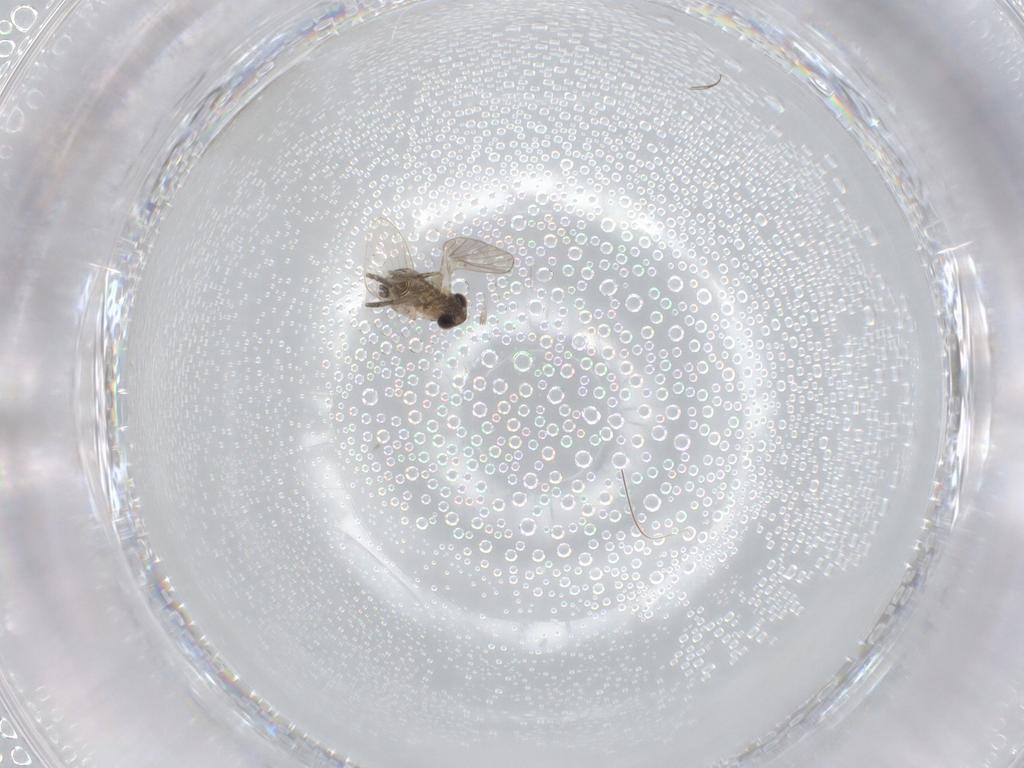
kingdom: Animalia
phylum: Arthropoda
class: Insecta
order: Diptera
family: Psychodidae
